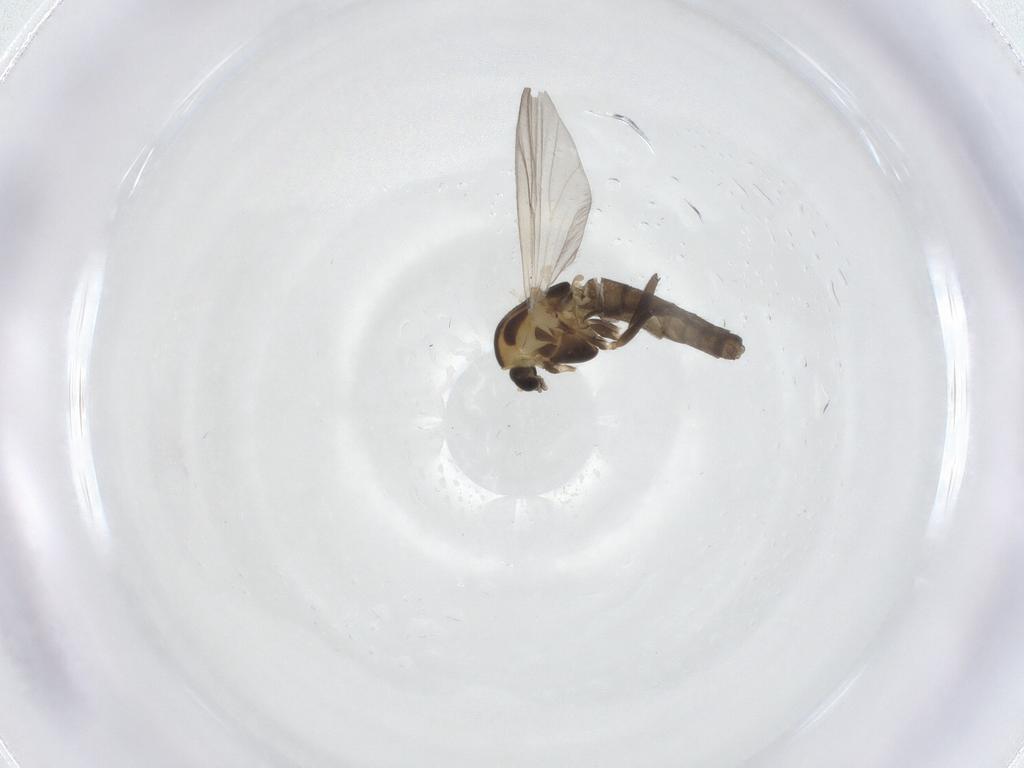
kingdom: Animalia
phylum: Arthropoda
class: Insecta
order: Diptera
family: Chironomidae
